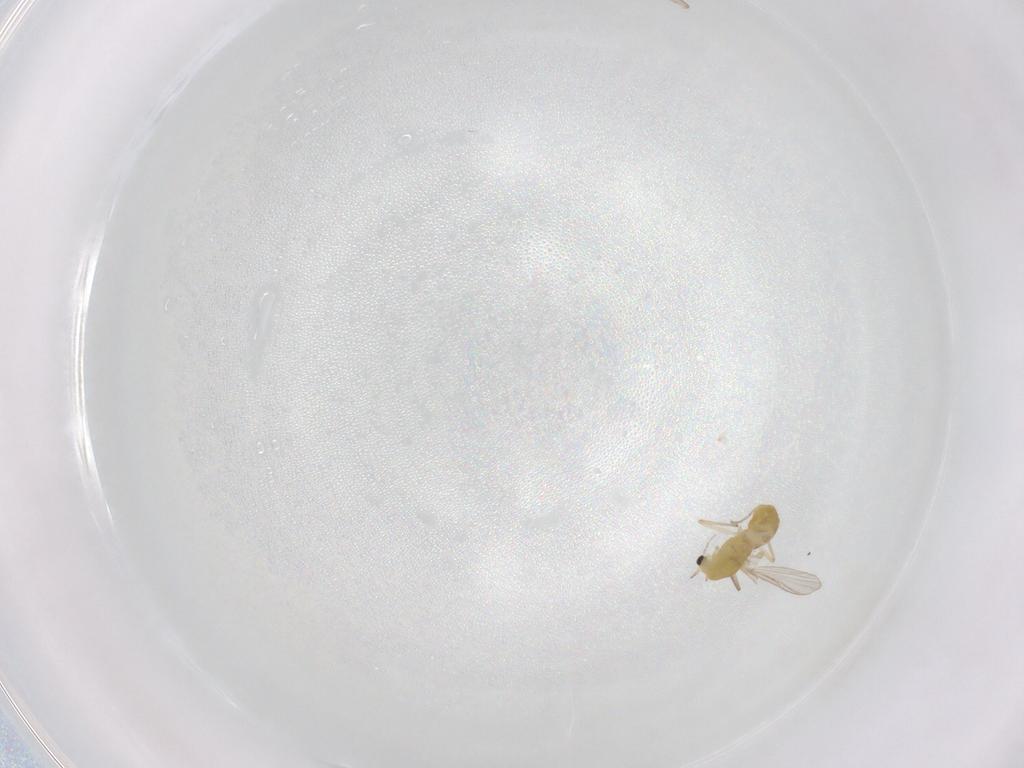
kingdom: Animalia
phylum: Arthropoda
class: Insecta
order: Diptera
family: Chironomidae
